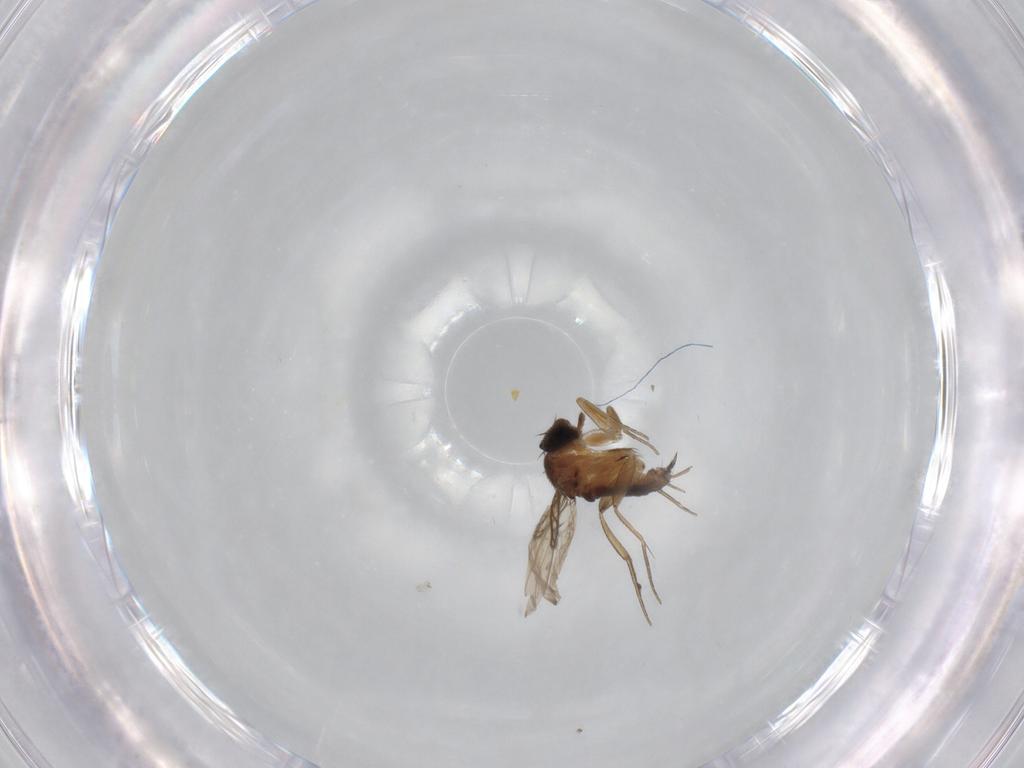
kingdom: Animalia
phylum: Arthropoda
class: Insecta
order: Diptera
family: Phoridae
